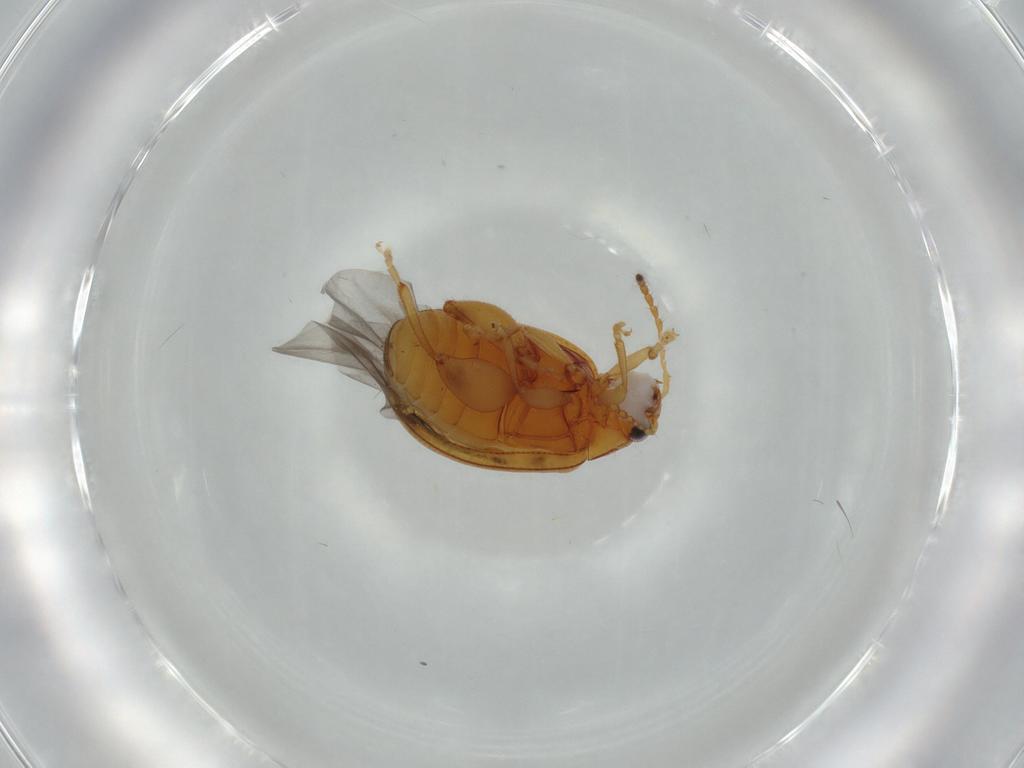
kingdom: Animalia
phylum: Arthropoda
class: Insecta
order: Coleoptera
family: Chrysomelidae
